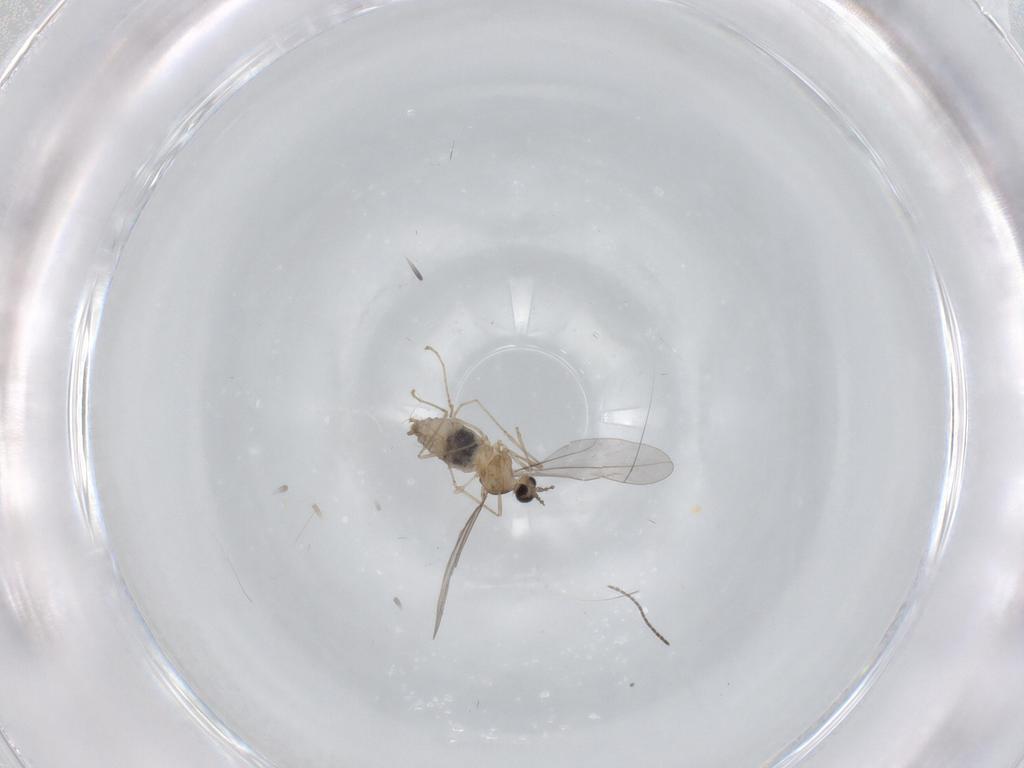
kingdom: Animalia
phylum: Arthropoda
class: Insecta
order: Diptera
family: Cecidomyiidae
